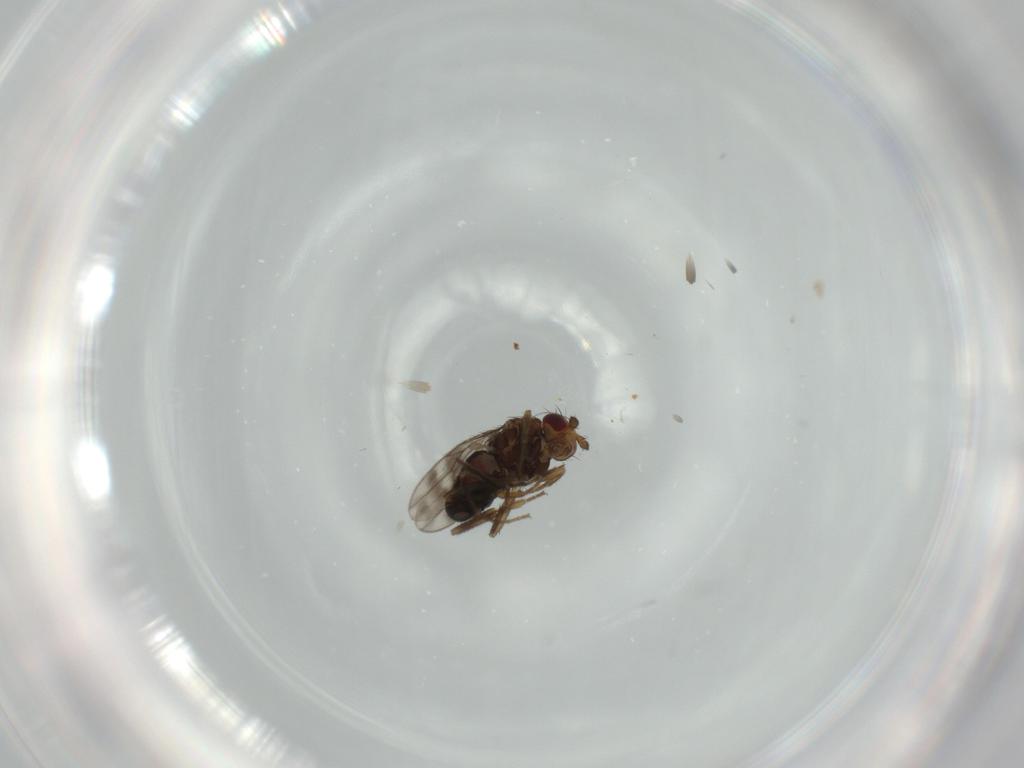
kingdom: Animalia
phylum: Arthropoda
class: Insecta
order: Diptera
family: Sphaeroceridae
